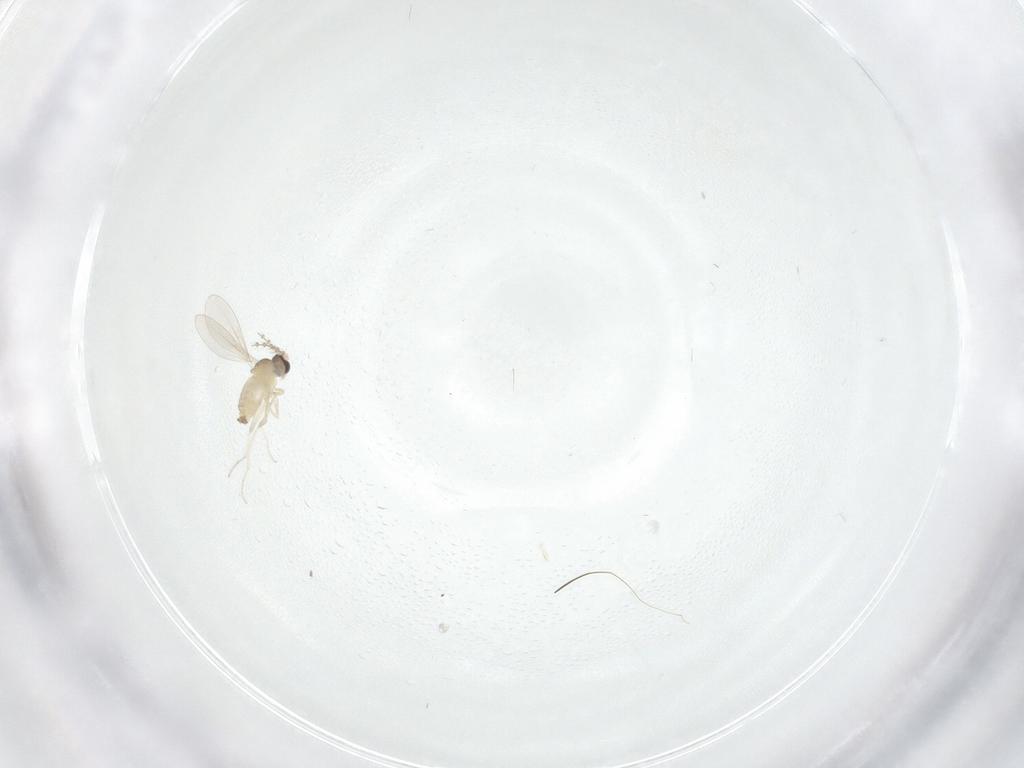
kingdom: Animalia
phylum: Arthropoda
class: Insecta
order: Diptera
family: Cecidomyiidae
